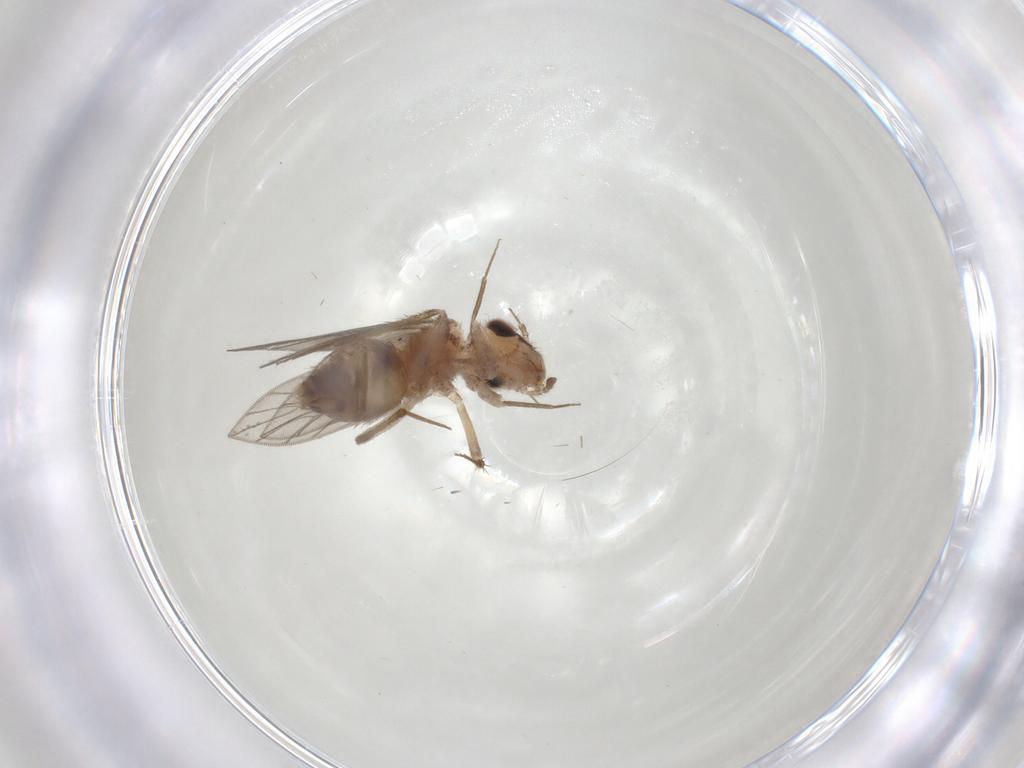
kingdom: Animalia
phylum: Arthropoda
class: Insecta
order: Psocodea
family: Lepidopsocidae
